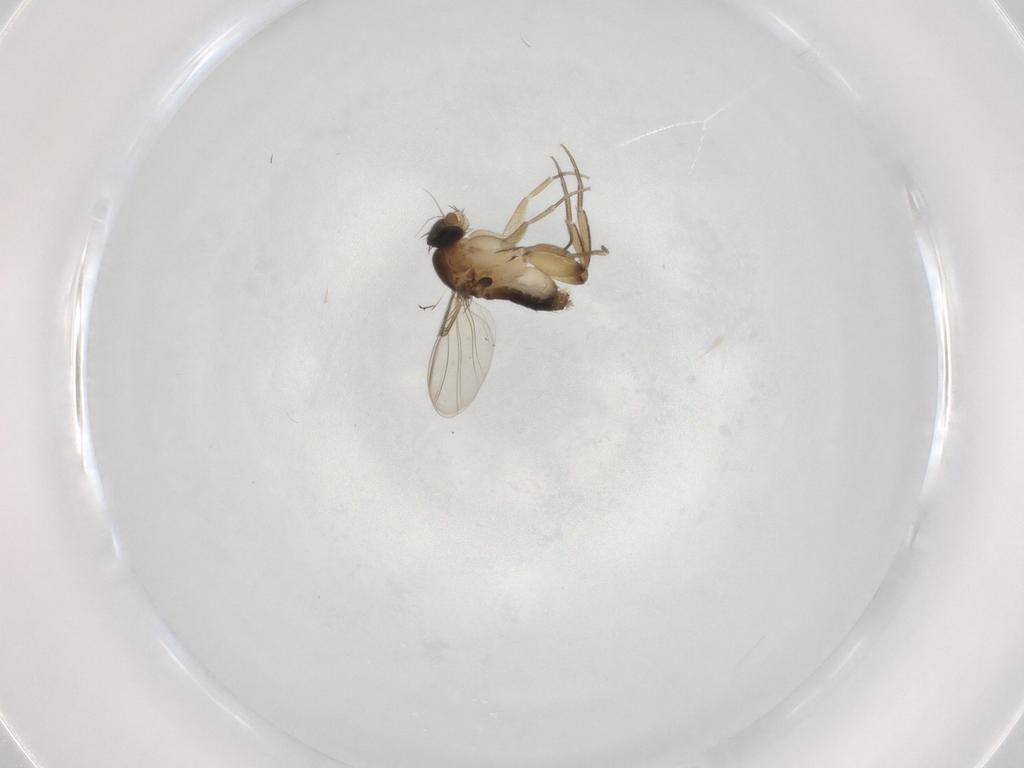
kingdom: Animalia
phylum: Arthropoda
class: Insecta
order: Diptera
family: Phoridae
